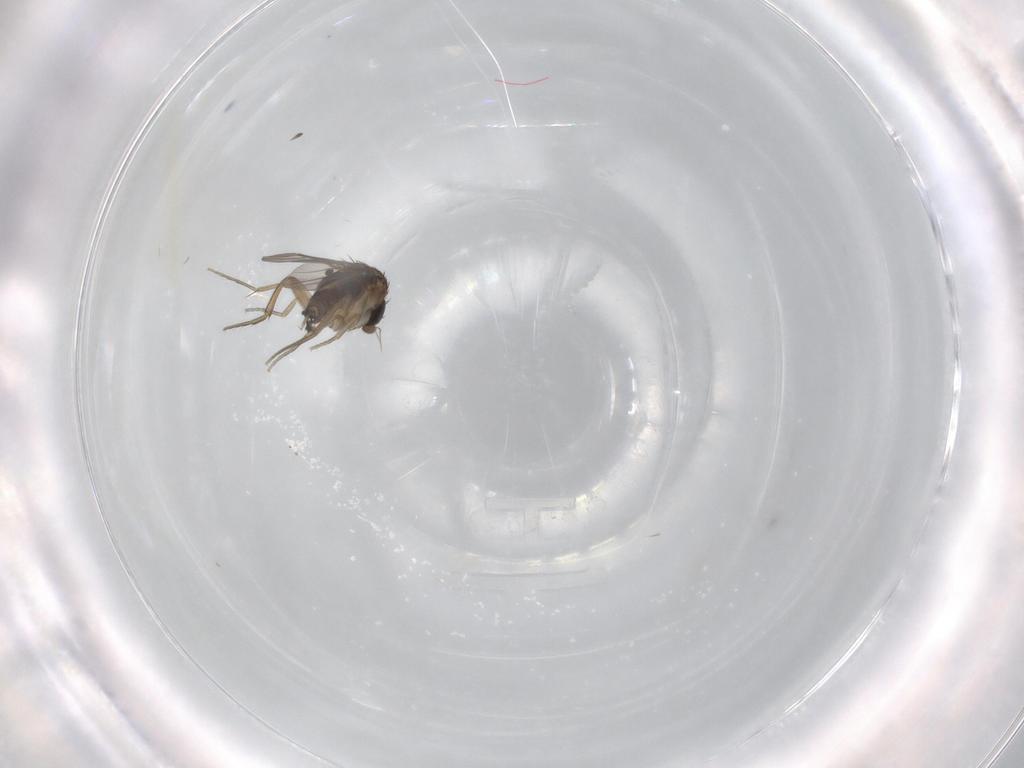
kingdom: Animalia
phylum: Arthropoda
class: Insecta
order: Diptera
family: Phoridae
